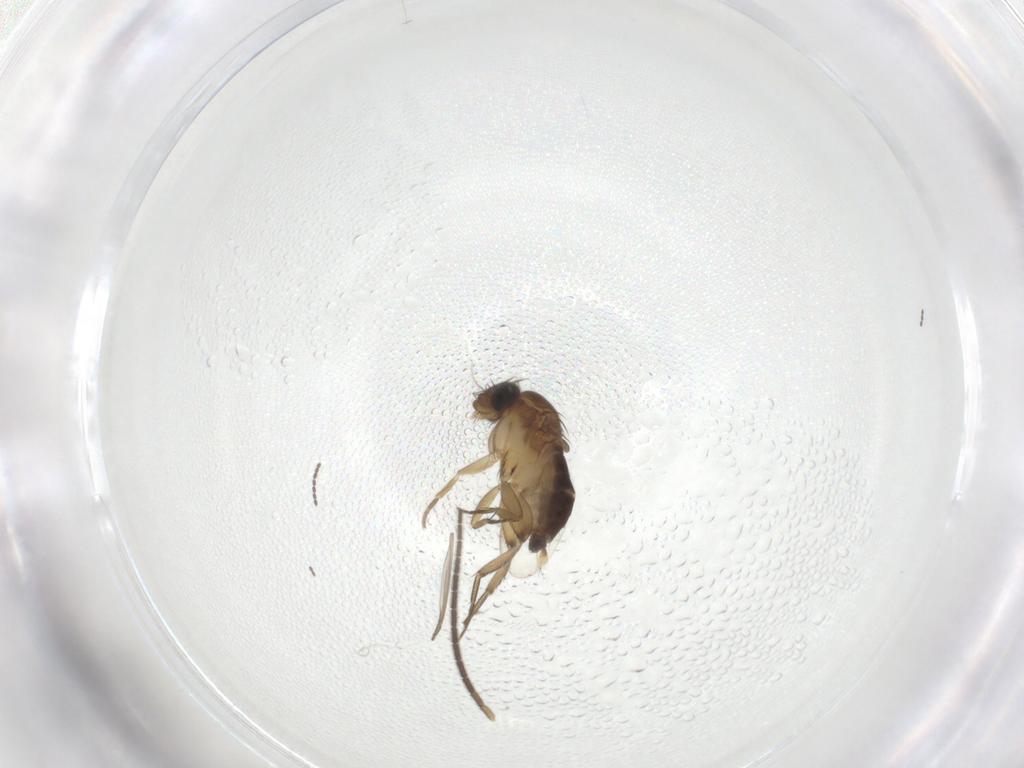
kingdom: Animalia
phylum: Arthropoda
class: Insecta
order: Diptera
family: Phoridae
